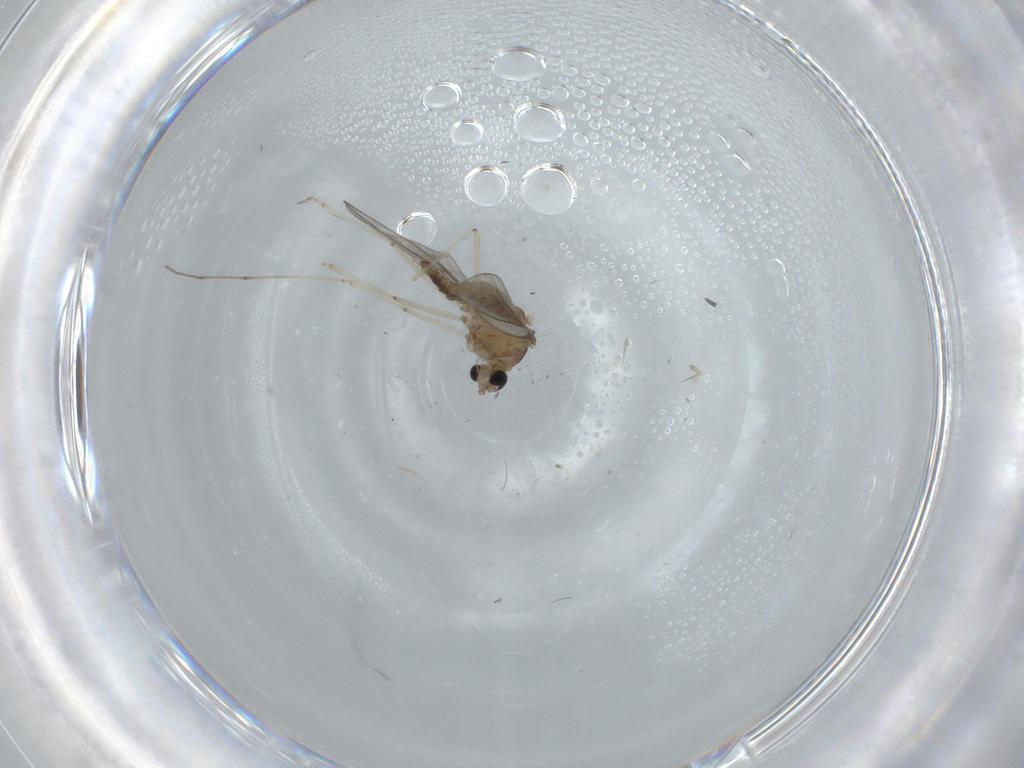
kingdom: Animalia
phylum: Arthropoda
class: Insecta
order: Diptera
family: Cecidomyiidae
